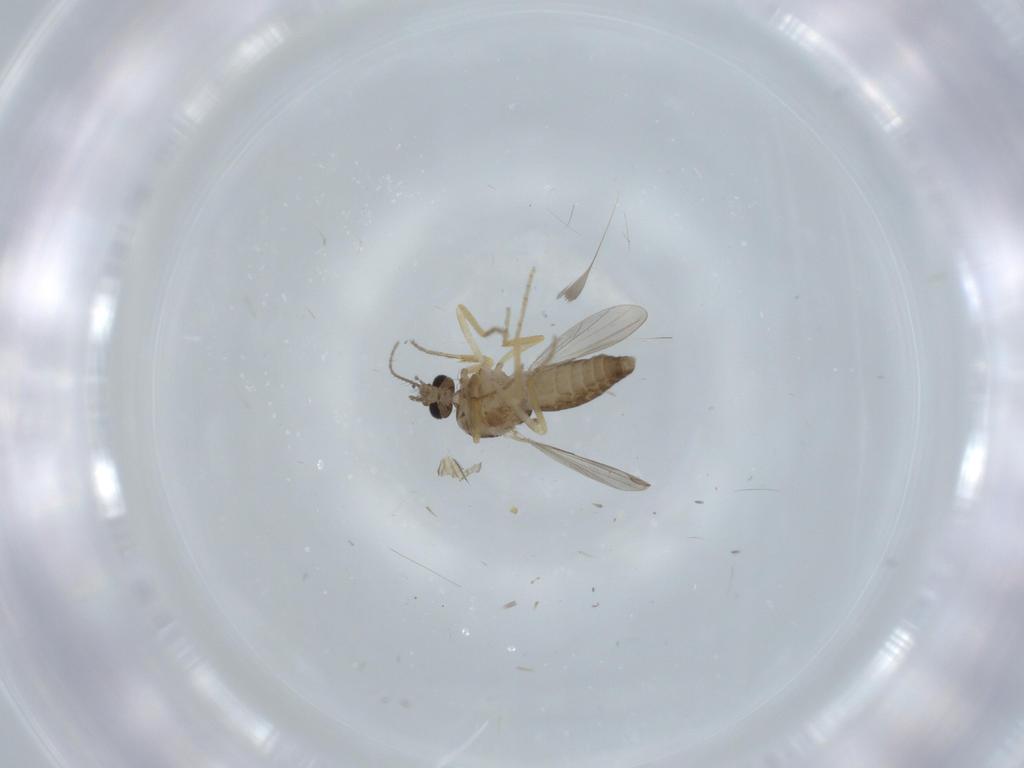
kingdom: Animalia
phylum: Arthropoda
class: Insecta
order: Diptera
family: Ceratopogonidae
